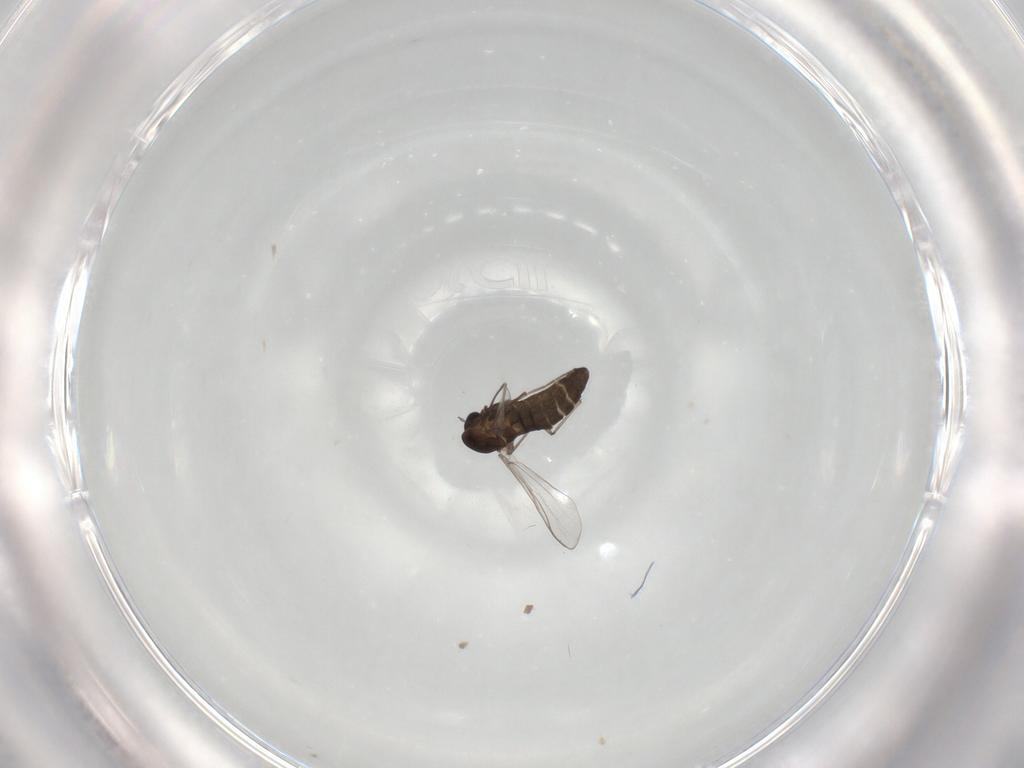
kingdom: Animalia
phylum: Arthropoda
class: Insecta
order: Diptera
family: Chironomidae
